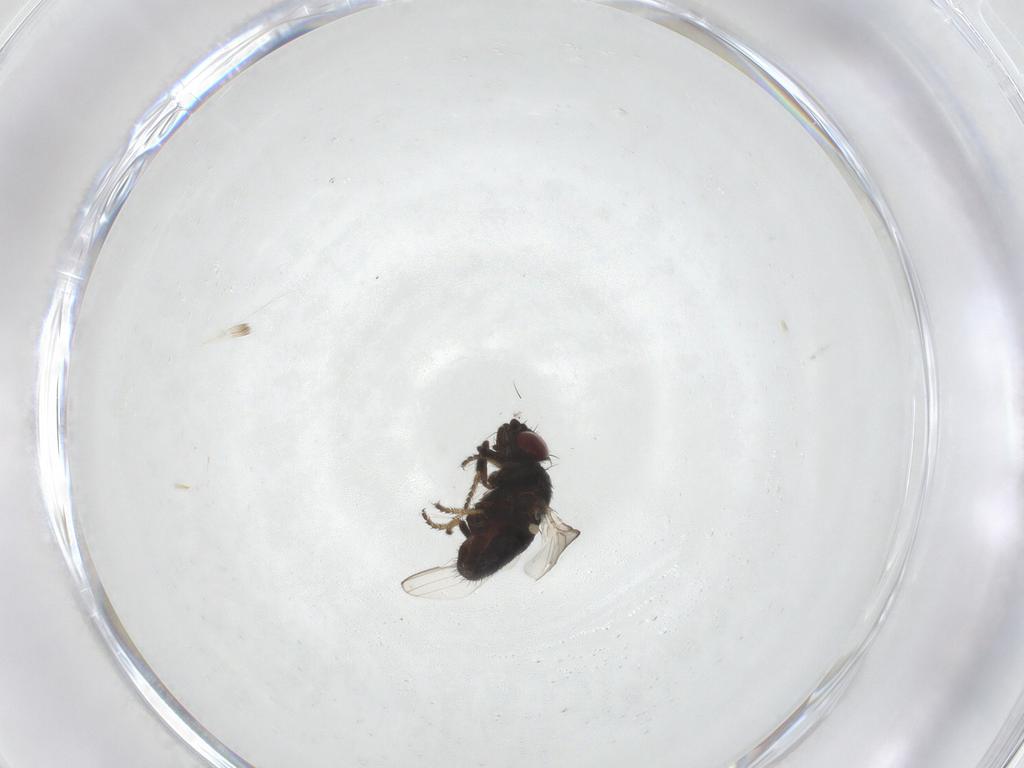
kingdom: Animalia
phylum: Arthropoda
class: Insecta
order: Diptera
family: Milichiidae
